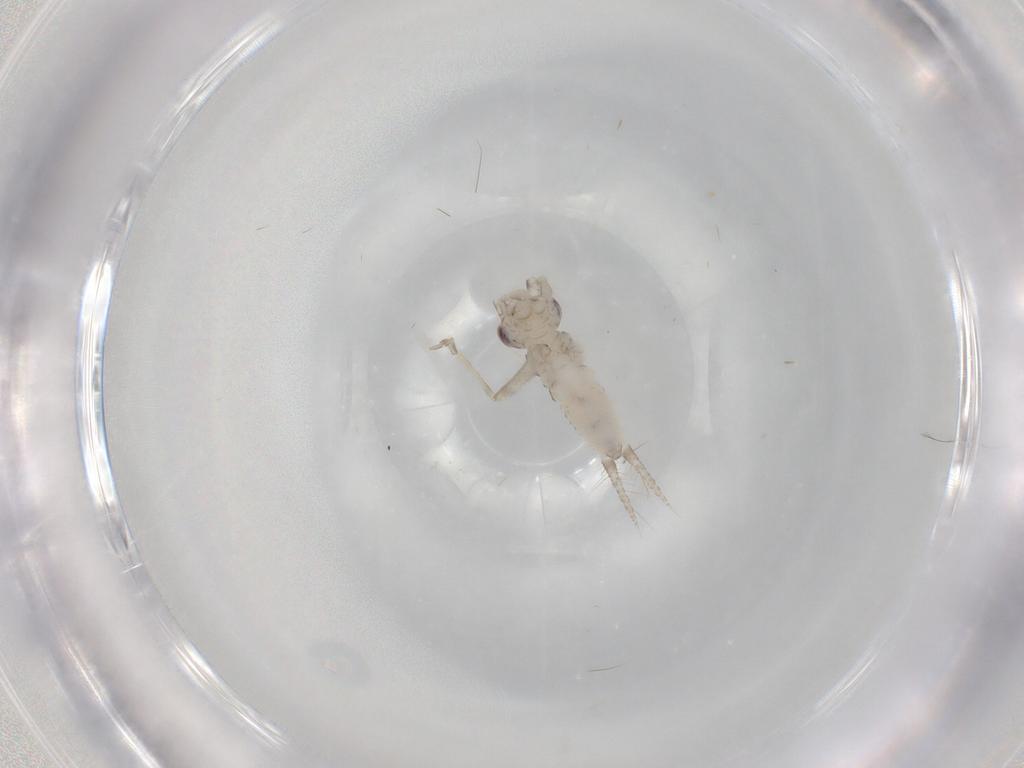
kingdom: Animalia
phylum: Arthropoda
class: Insecta
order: Orthoptera
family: Trigonidiidae
